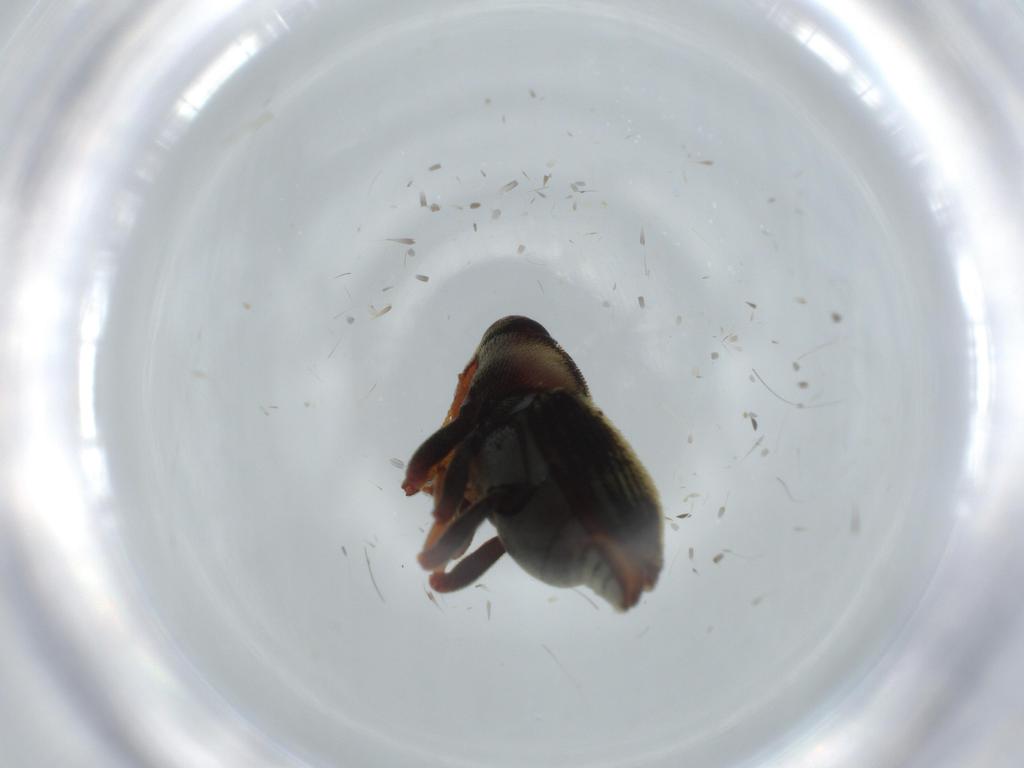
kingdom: Animalia
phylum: Arthropoda
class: Insecta
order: Coleoptera
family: Curculionidae
